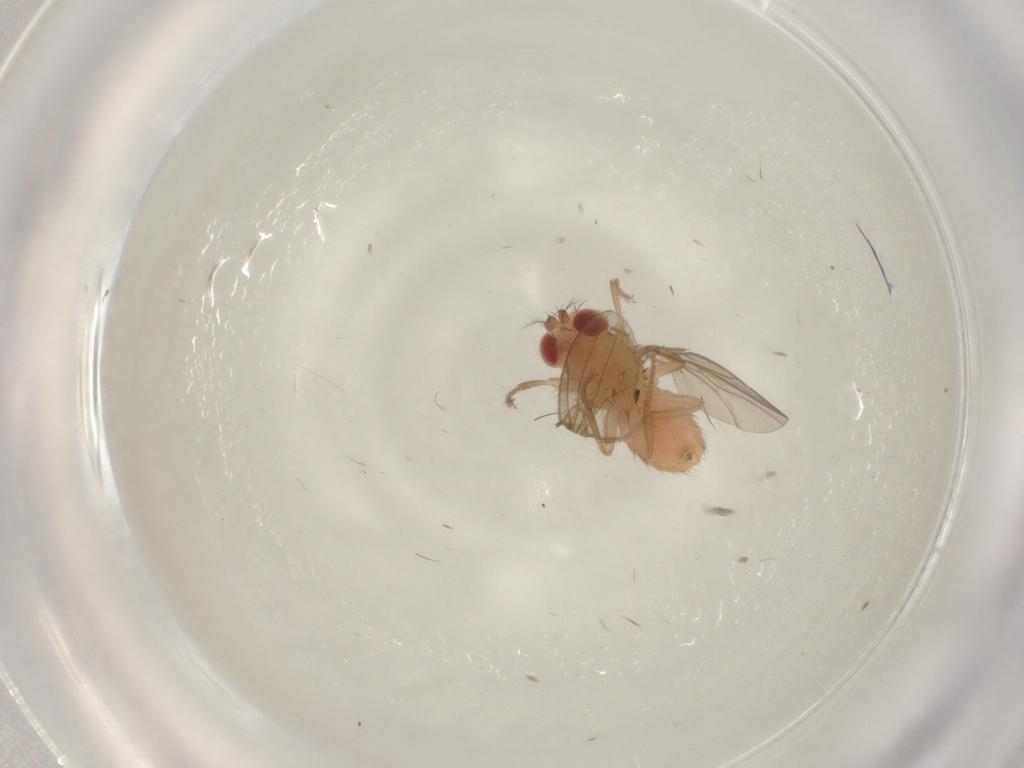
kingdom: Animalia
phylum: Arthropoda
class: Insecta
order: Diptera
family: Drosophilidae
